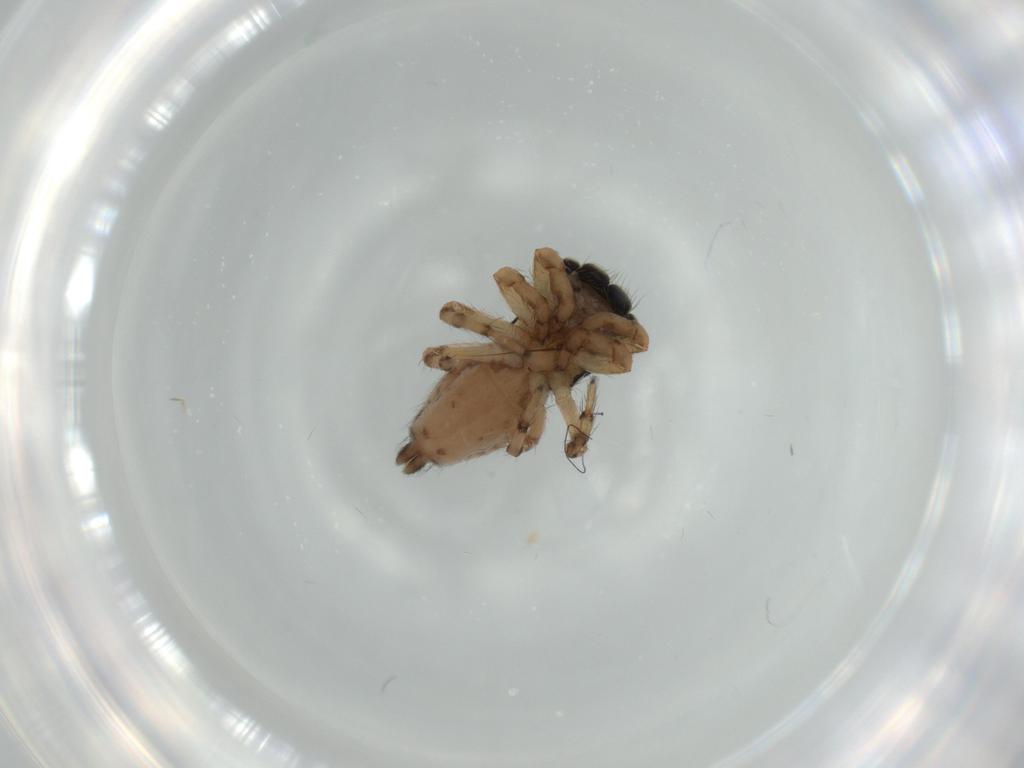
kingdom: Animalia
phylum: Arthropoda
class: Arachnida
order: Araneae
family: Salticidae
